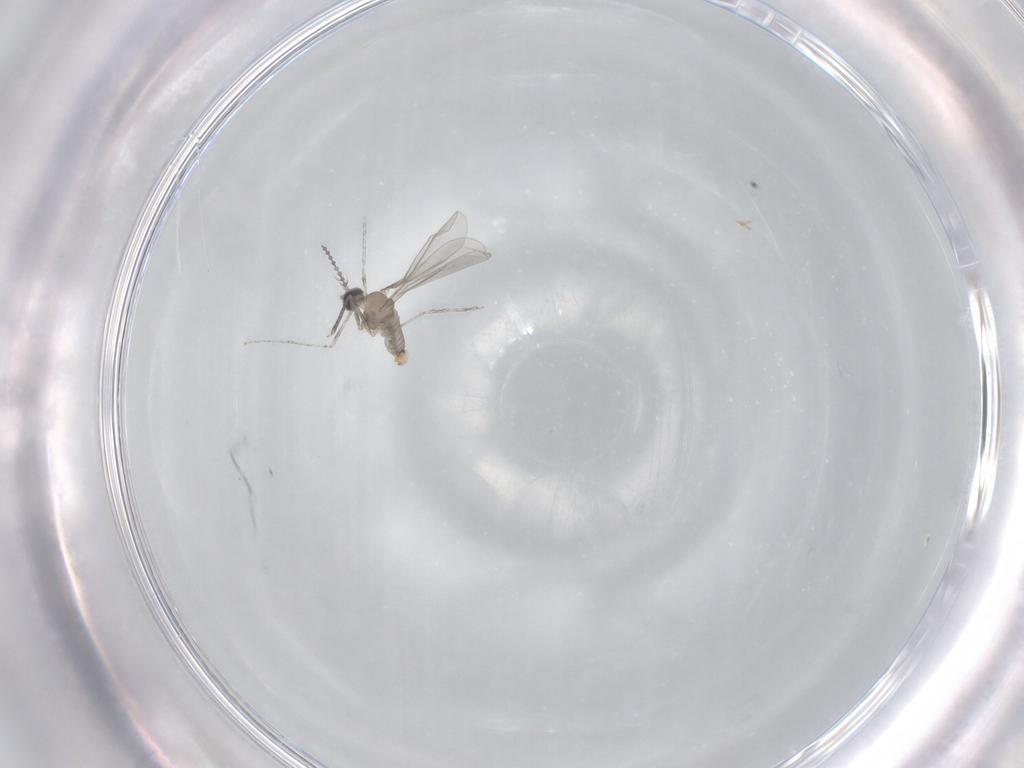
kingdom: Animalia
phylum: Arthropoda
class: Insecta
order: Diptera
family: Cecidomyiidae
